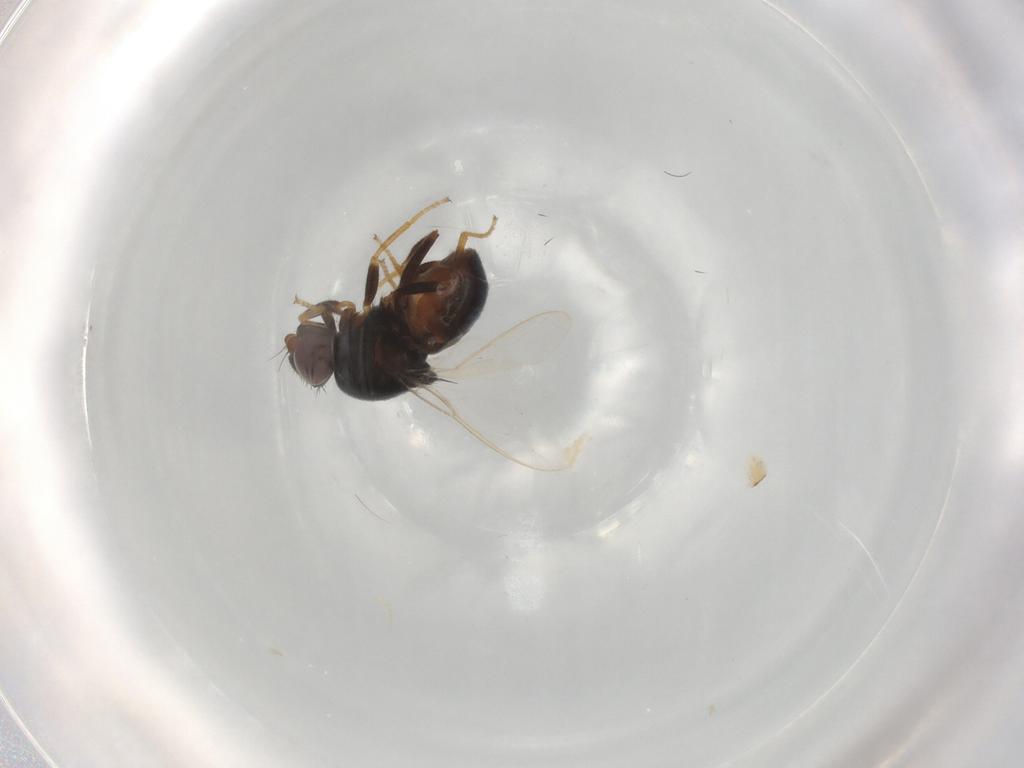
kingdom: Animalia
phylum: Arthropoda
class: Insecta
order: Diptera
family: Chloropidae
